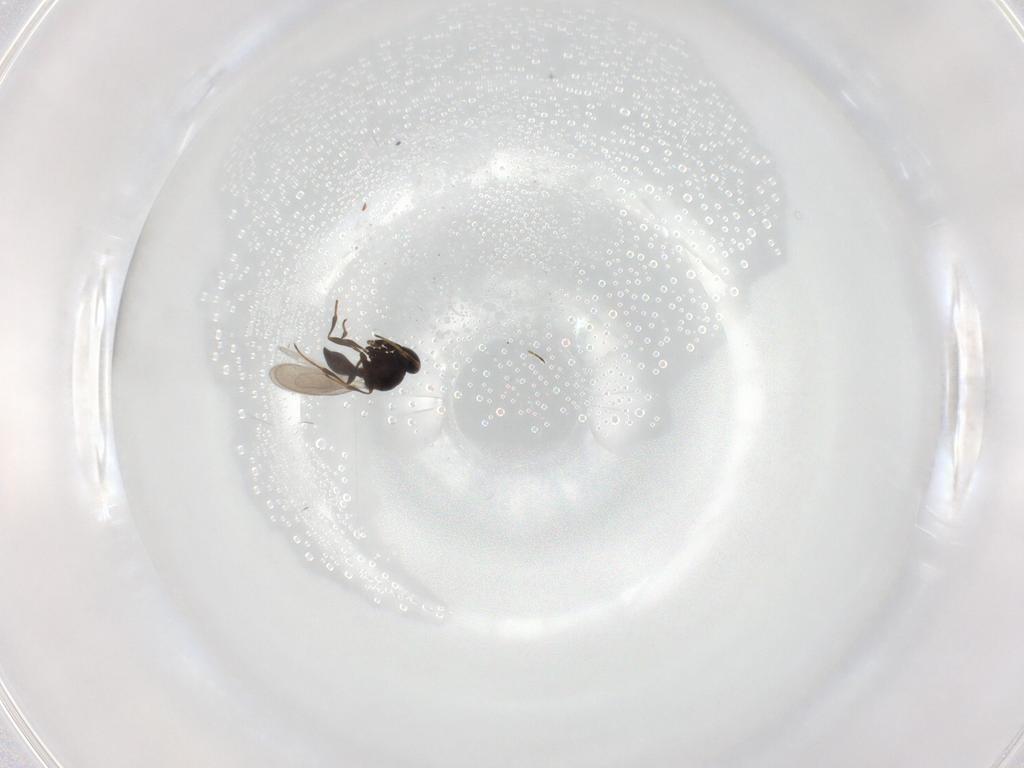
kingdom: Animalia
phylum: Arthropoda
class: Insecta
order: Hymenoptera
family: Platygastridae
